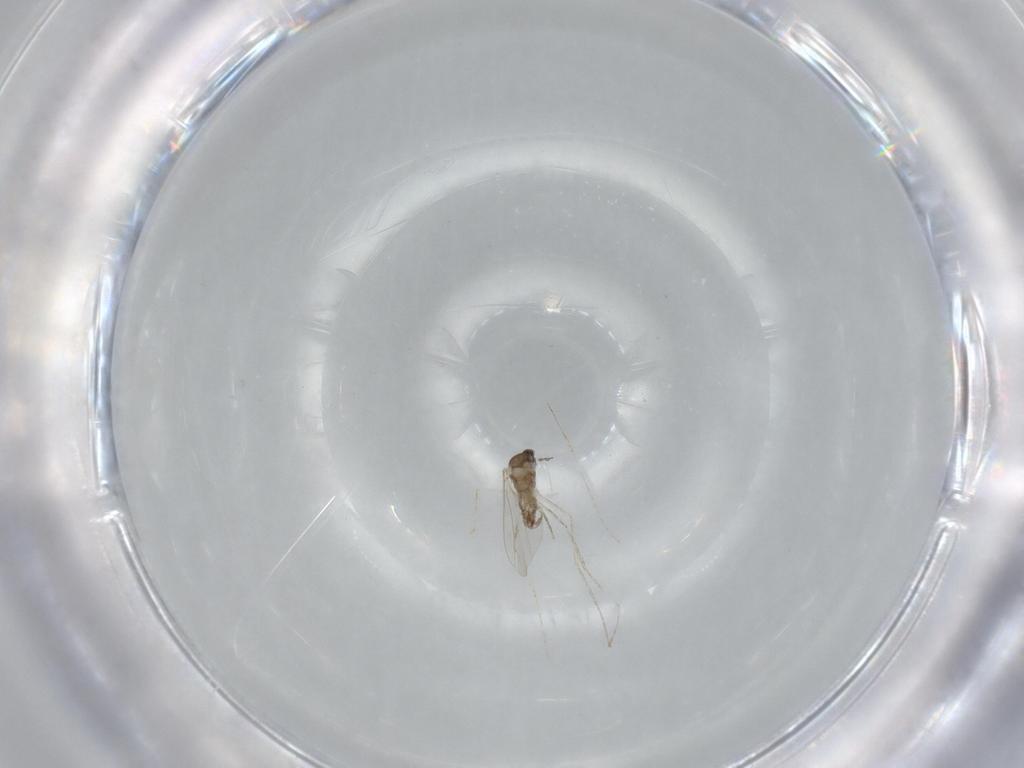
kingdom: Animalia
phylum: Arthropoda
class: Insecta
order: Diptera
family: Cecidomyiidae
